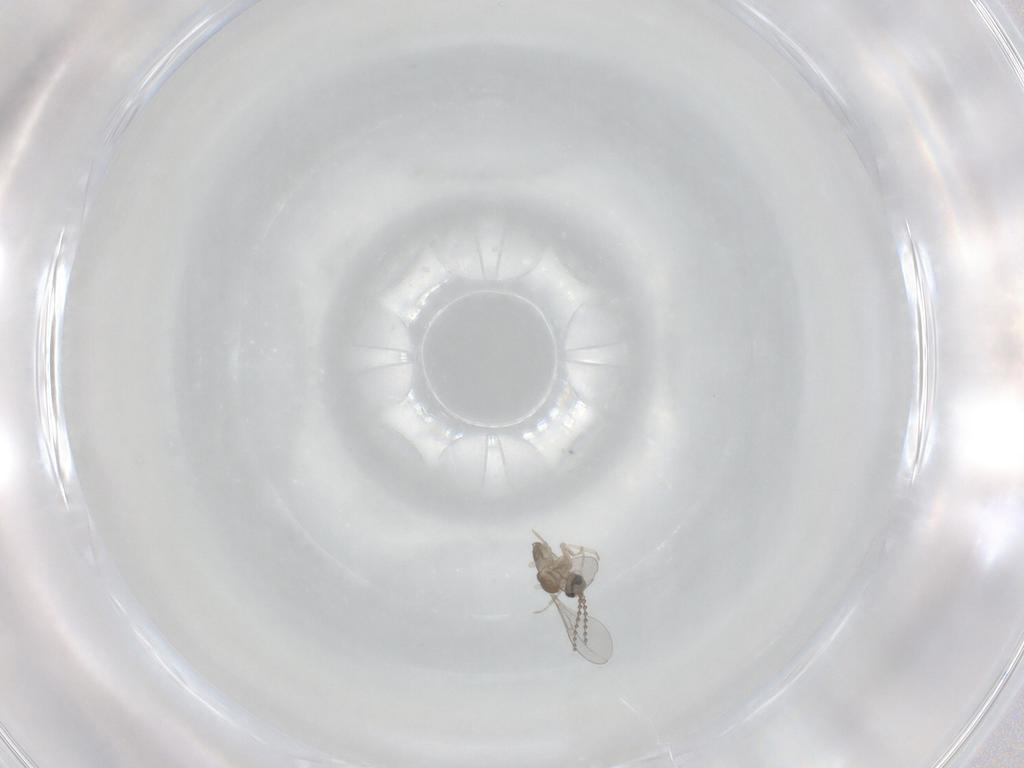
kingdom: Animalia
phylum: Arthropoda
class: Insecta
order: Diptera
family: Cecidomyiidae
